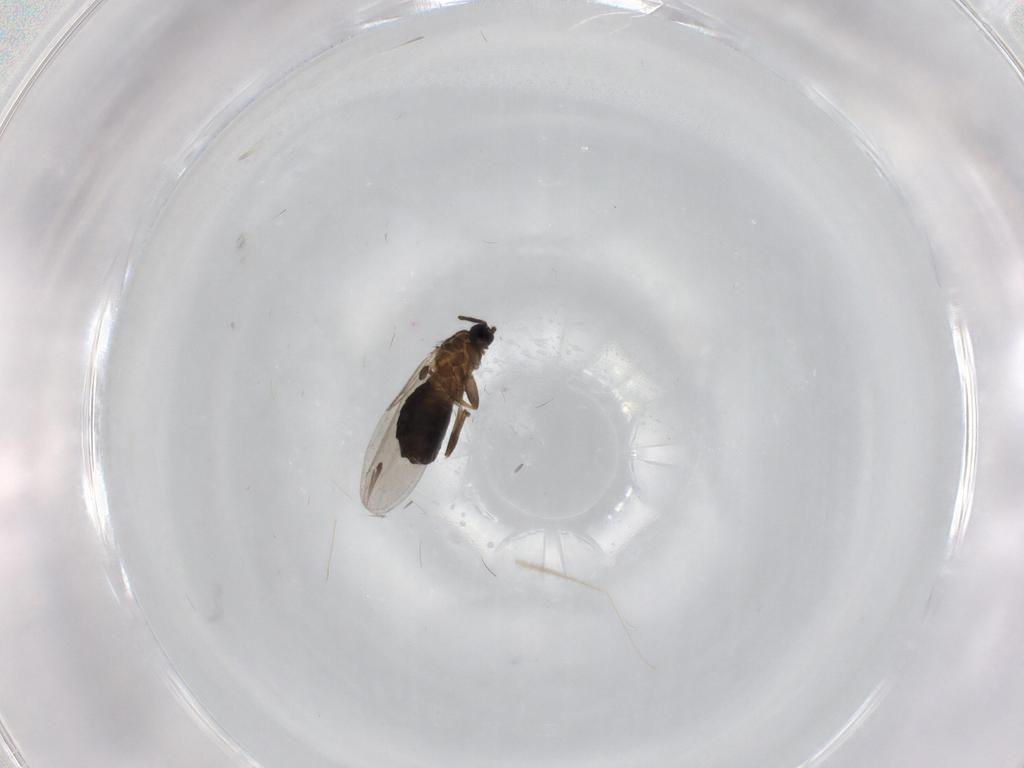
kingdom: Animalia
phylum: Arthropoda
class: Insecta
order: Diptera
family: Scatopsidae
